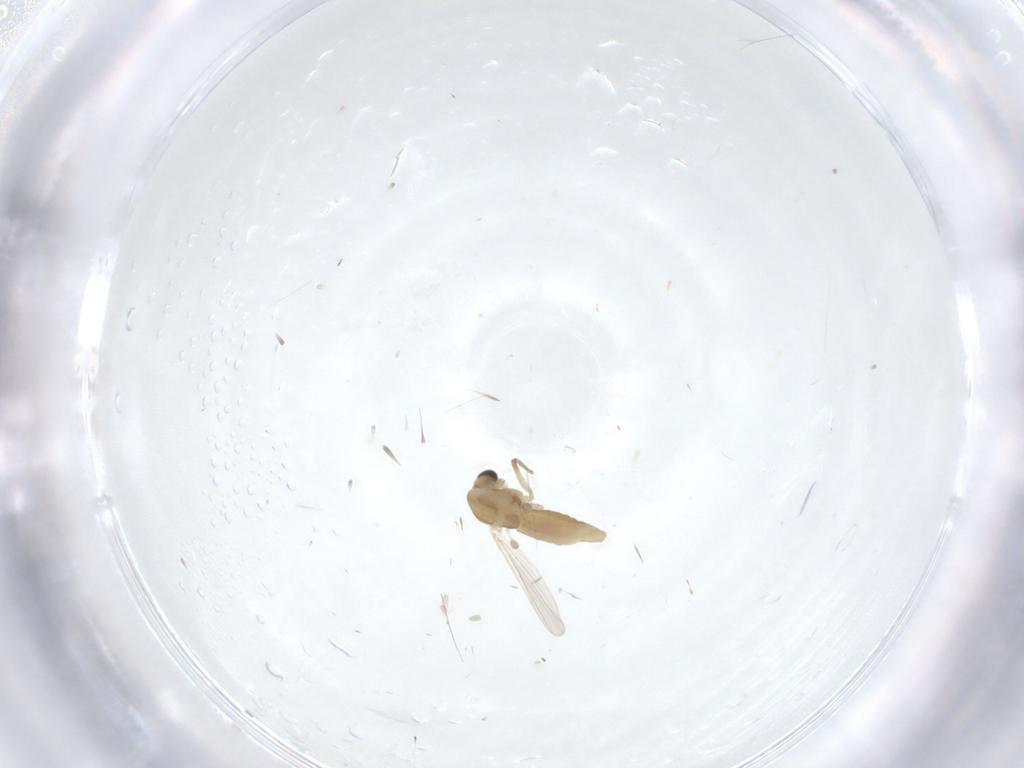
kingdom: Animalia
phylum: Arthropoda
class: Insecta
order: Diptera
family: Chironomidae
